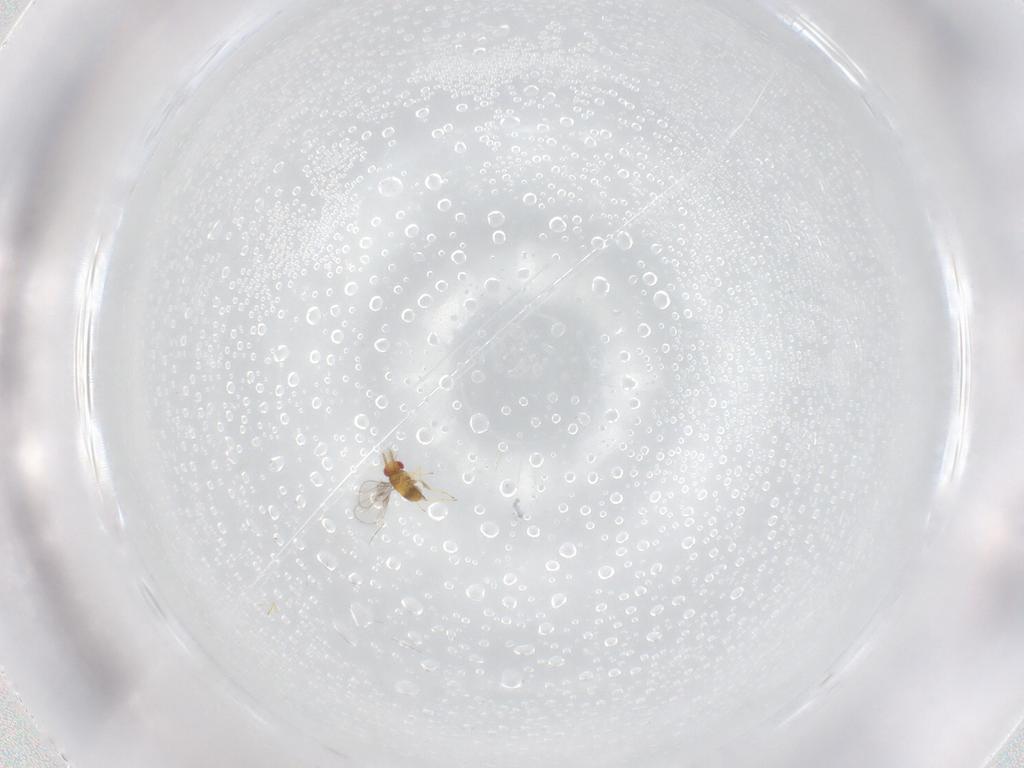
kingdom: Animalia
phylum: Arthropoda
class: Insecta
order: Hymenoptera
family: Trichogrammatidae
